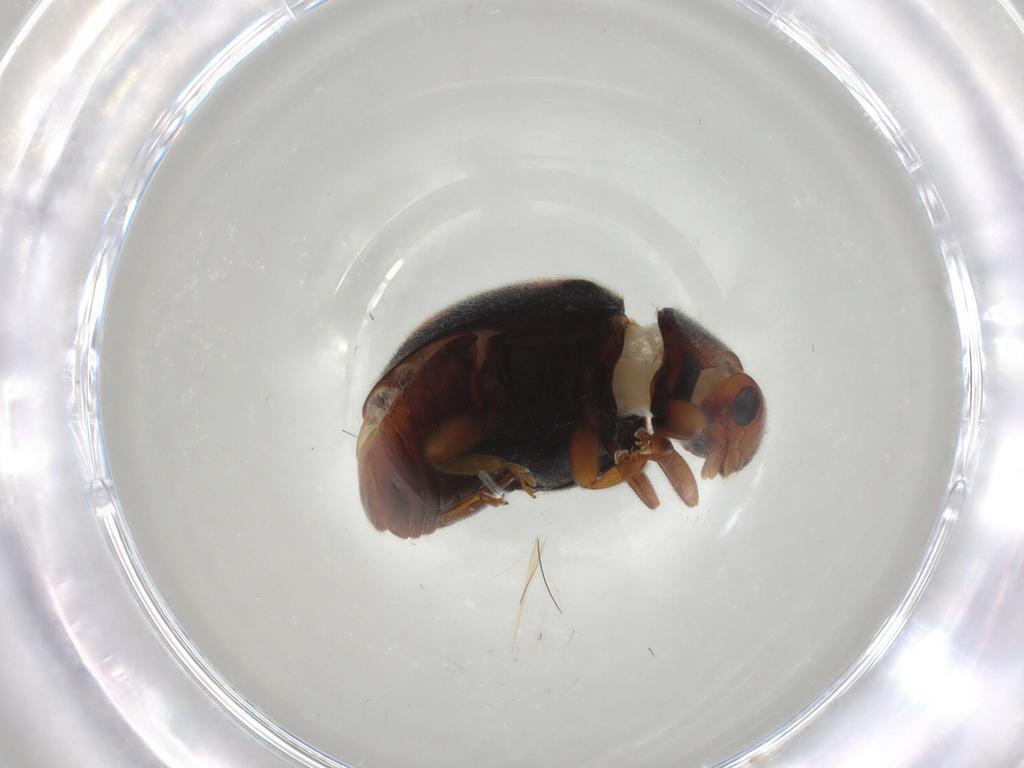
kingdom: Animalia
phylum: Arthropoda
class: Insecta
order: Coleoptera
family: Coccinellidae
